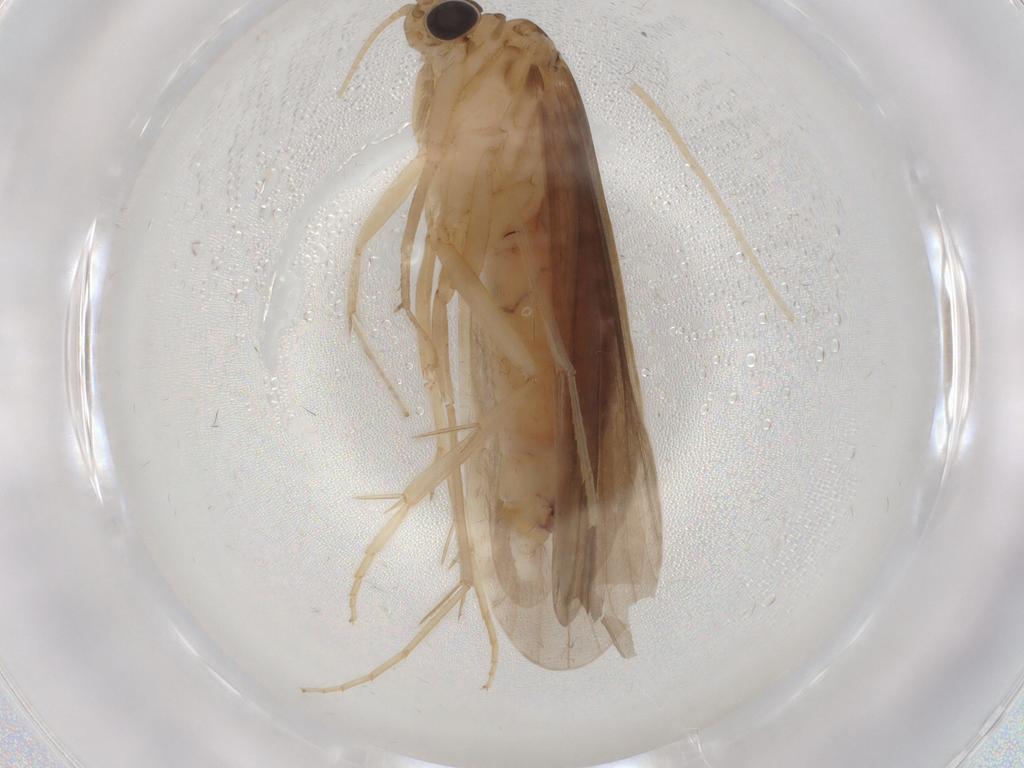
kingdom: Animalia
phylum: Arthropoda
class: Insecta
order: Trichoptera
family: Ecnomidae
